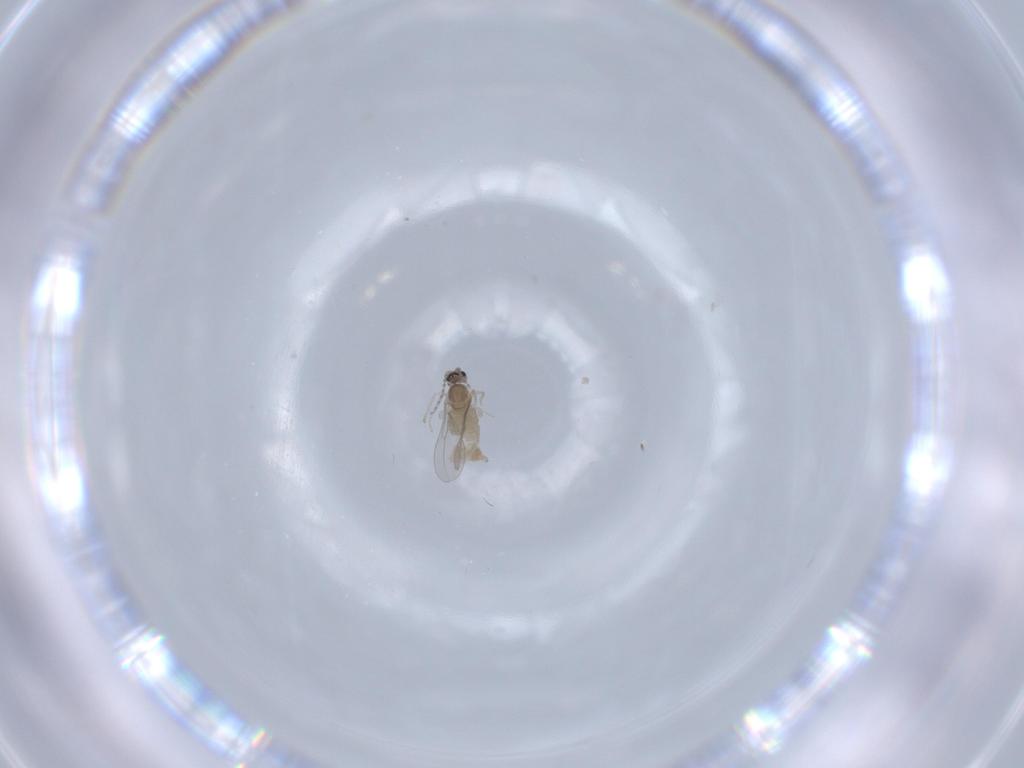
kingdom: Animalia
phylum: Arthropoda
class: Insecta
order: Diptera
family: Cecidomyiidae
